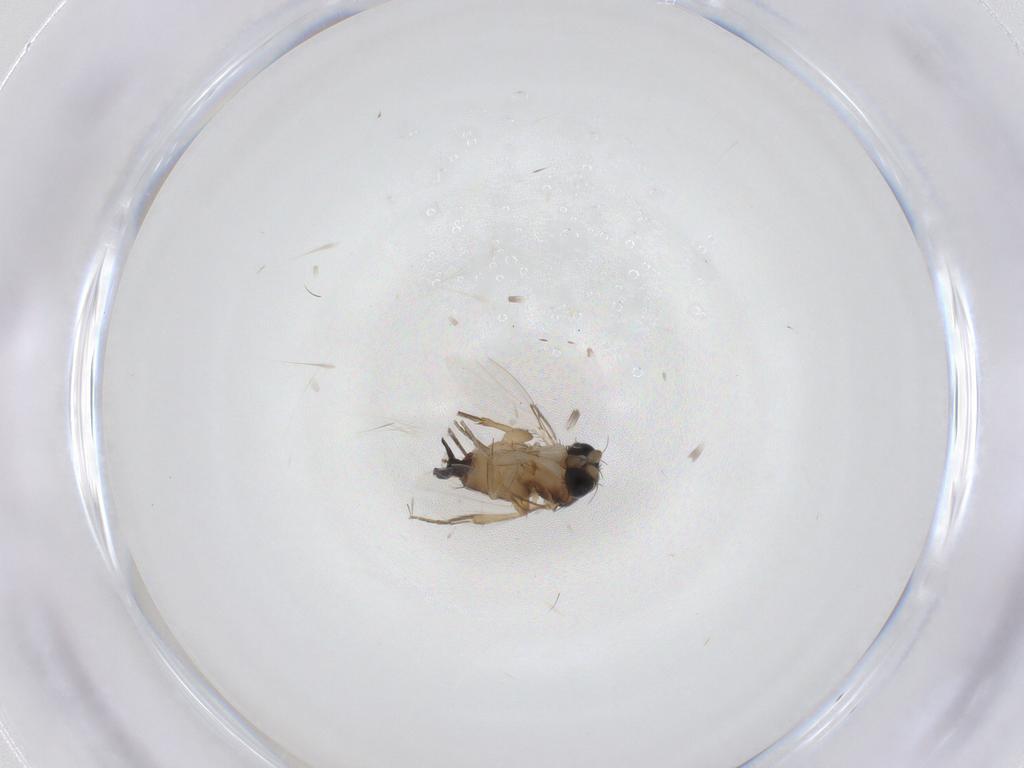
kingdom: Animalia
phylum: Arthropoda
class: Insecta
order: Diptera
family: Phoridae
